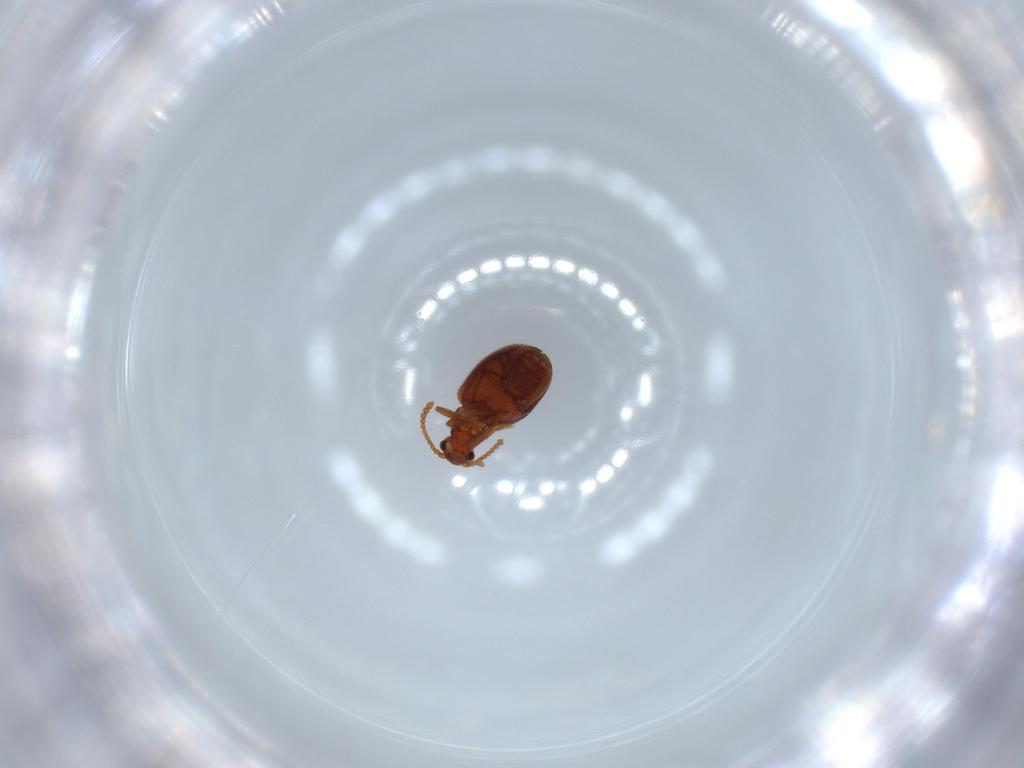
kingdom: Animalia
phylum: Arthropoda
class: Insecta
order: Coleoptera
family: Aderidae
